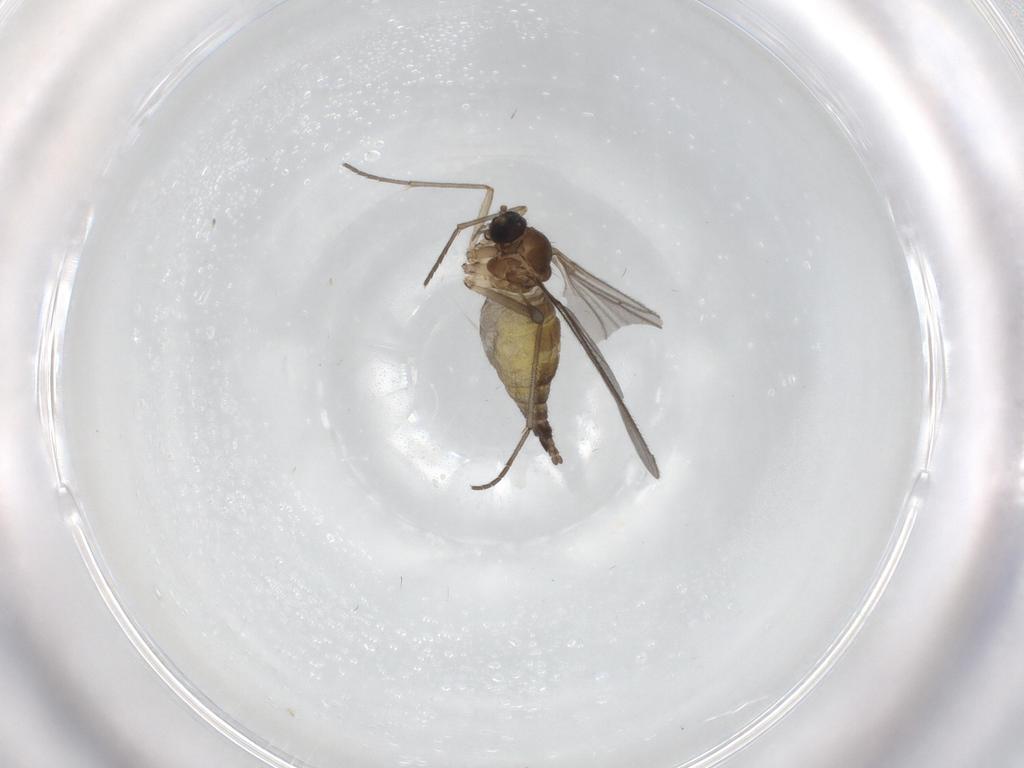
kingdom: Animalia
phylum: Arthropoda
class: Insecta
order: Diptera
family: Sciaridae
